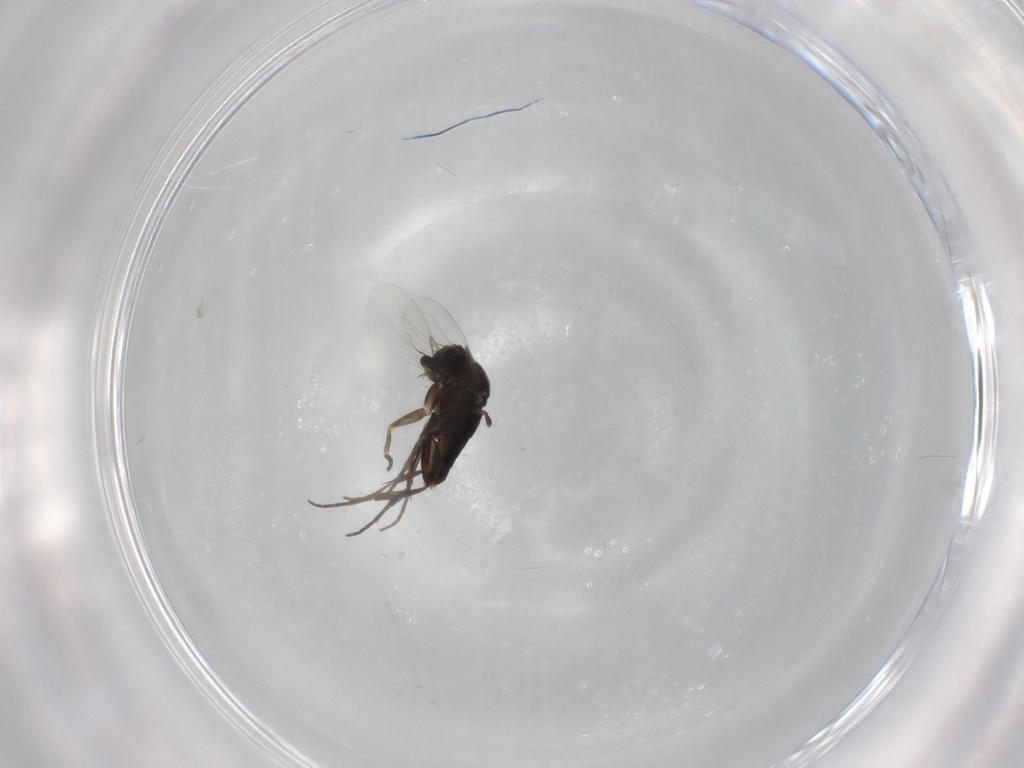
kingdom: Animalia
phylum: Arthropoda
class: Insecta
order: Diptera
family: Phoridae
